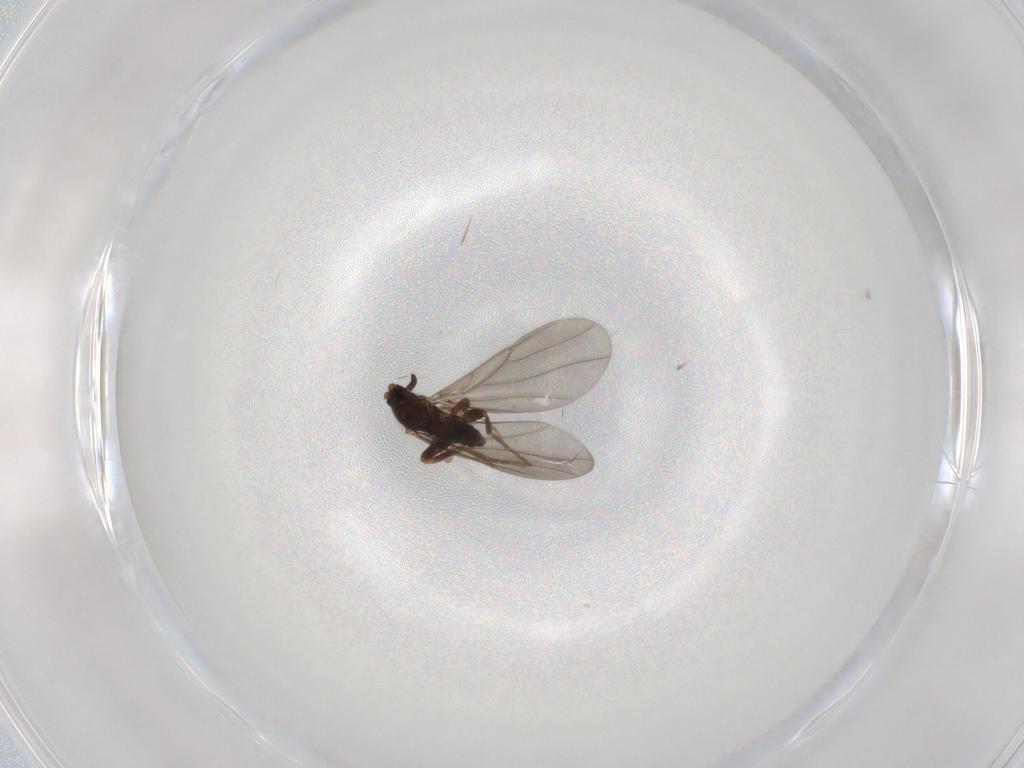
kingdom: Animalia
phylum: Arthropoda
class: Insecta
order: Diptera
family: Sciaridae
